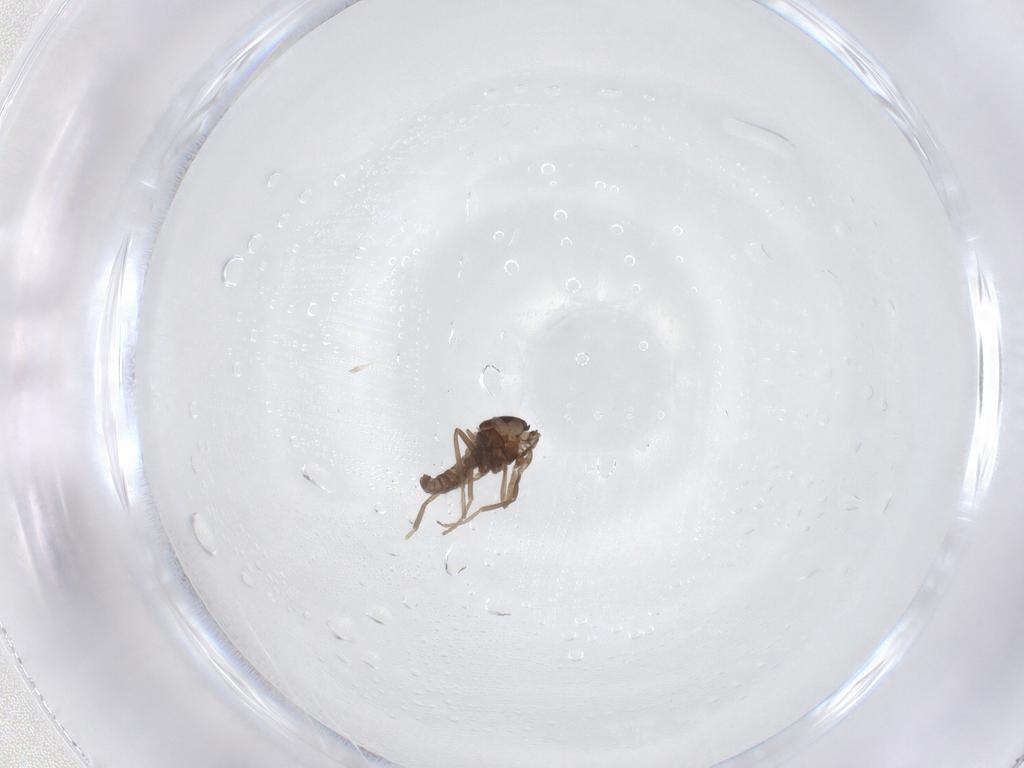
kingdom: Animalia
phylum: Arthropoda
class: Insecta
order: Diptera
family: Cecidomyiidae
